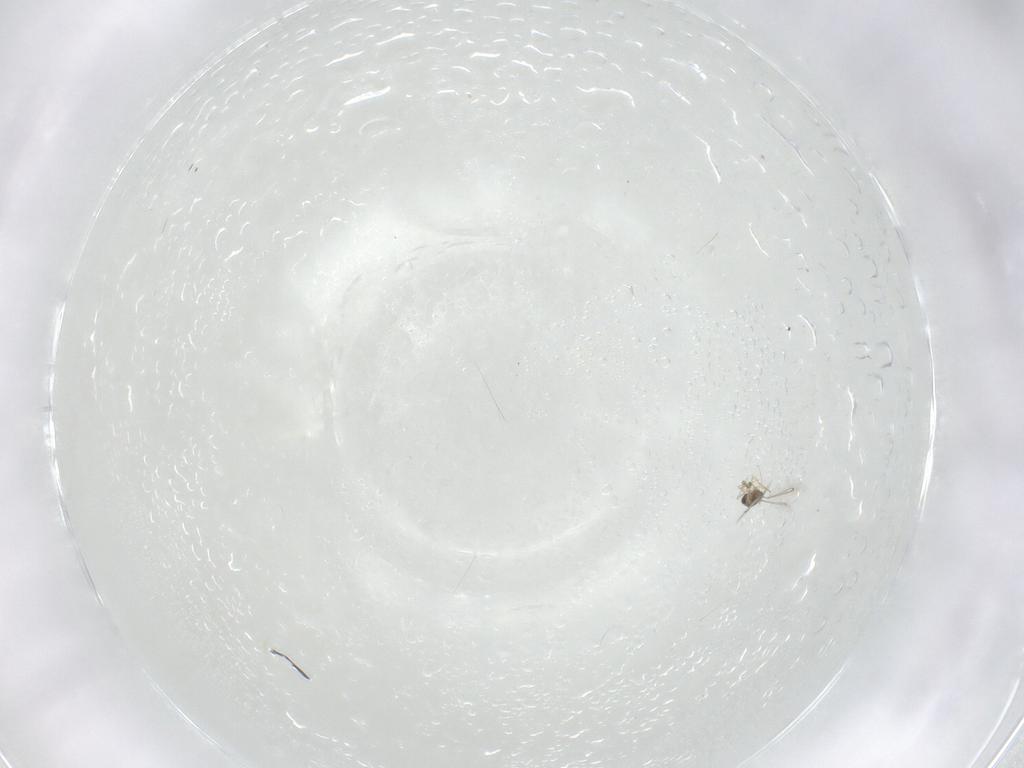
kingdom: Animalia
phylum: Arthropoda
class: Insecta
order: Hymenoptera
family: Mymaridae
